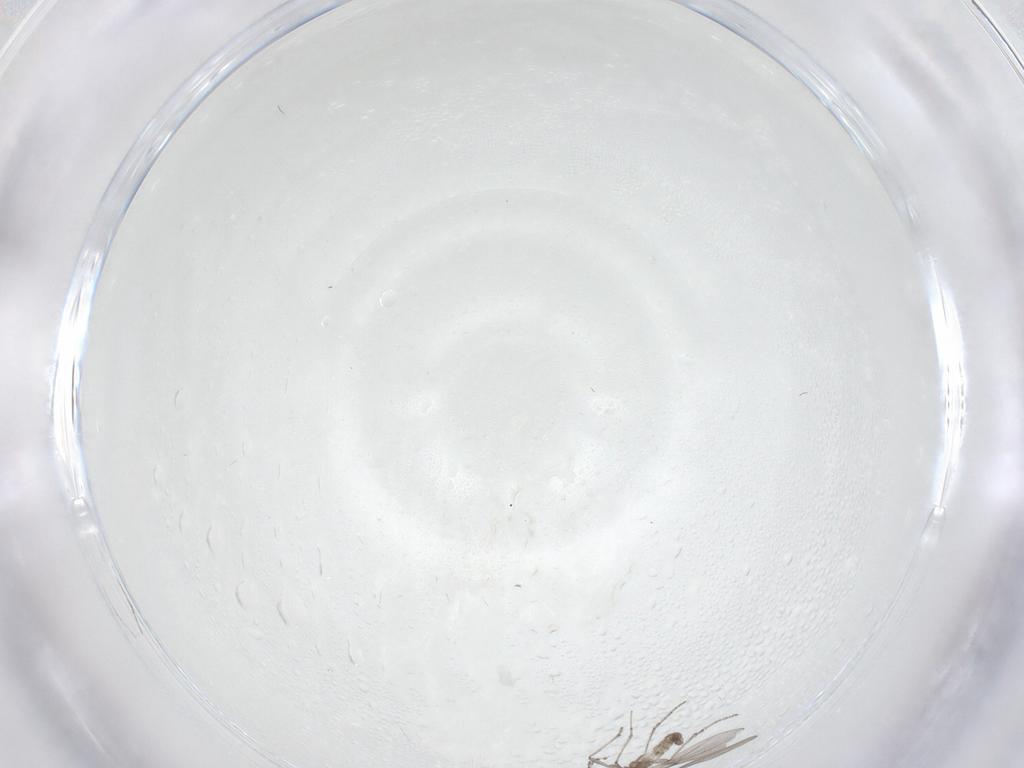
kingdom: Animalia
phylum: Arthropoda
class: Insecta
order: Diptera
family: Cecidomyiidae
